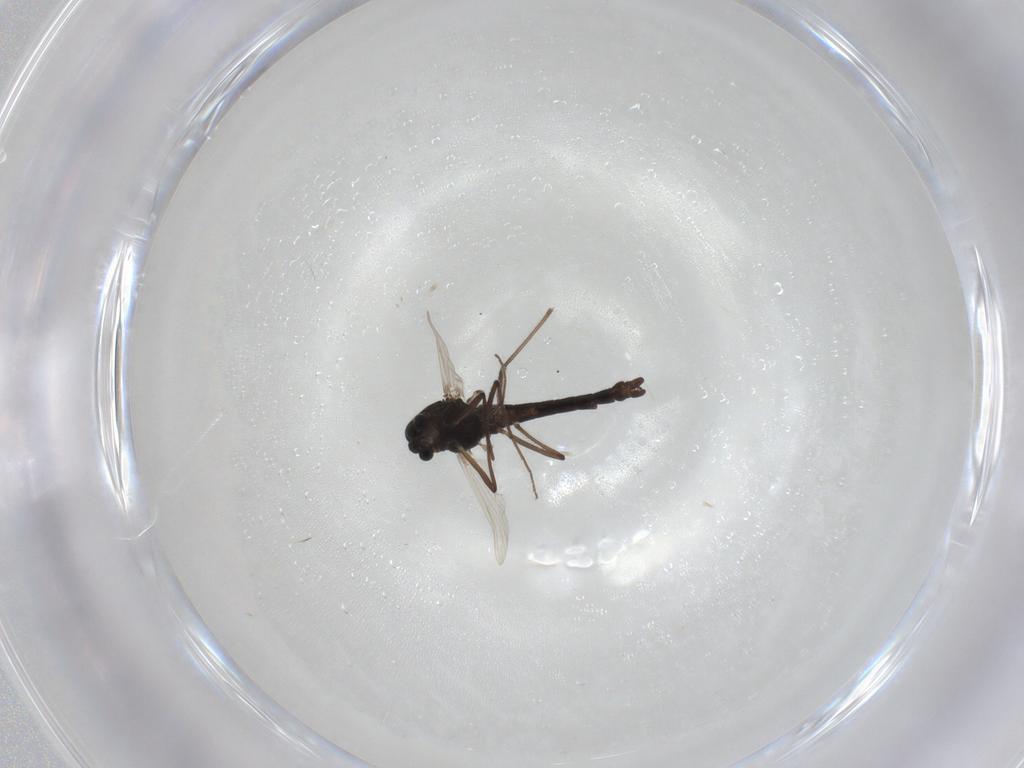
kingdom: Animalia
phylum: Arthropoda
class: Insecta
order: Diptera
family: Chironomidae
